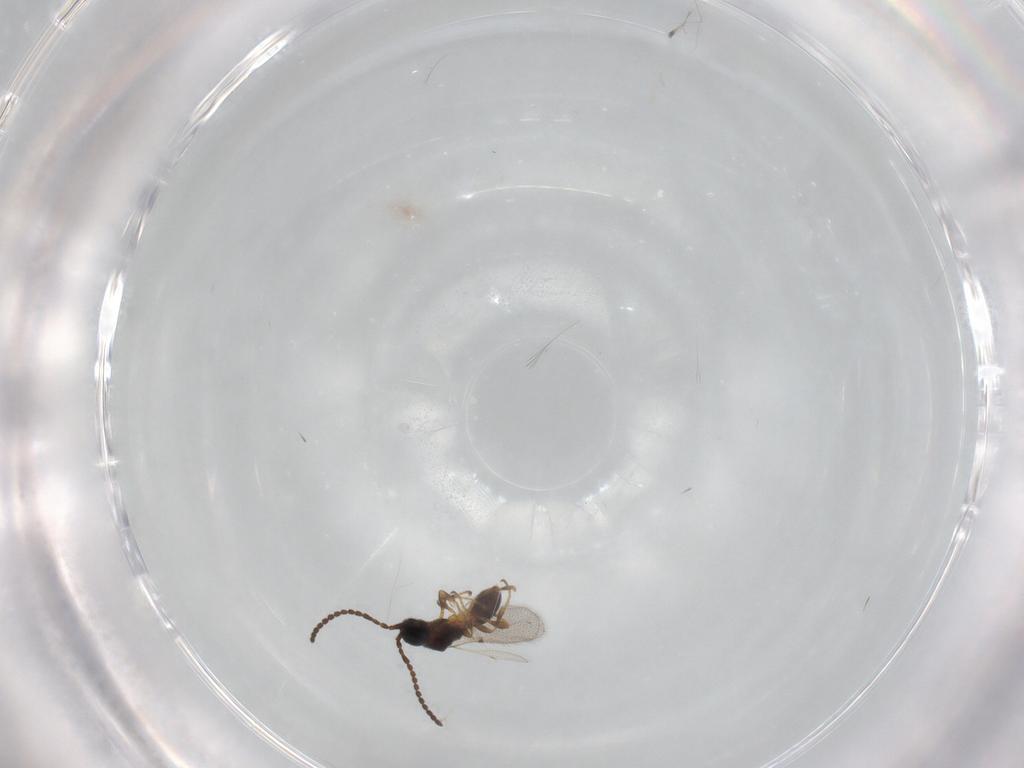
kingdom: Animalia
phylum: Arthropoda
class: Insecta
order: Hymenoptera
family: Diapriidae
